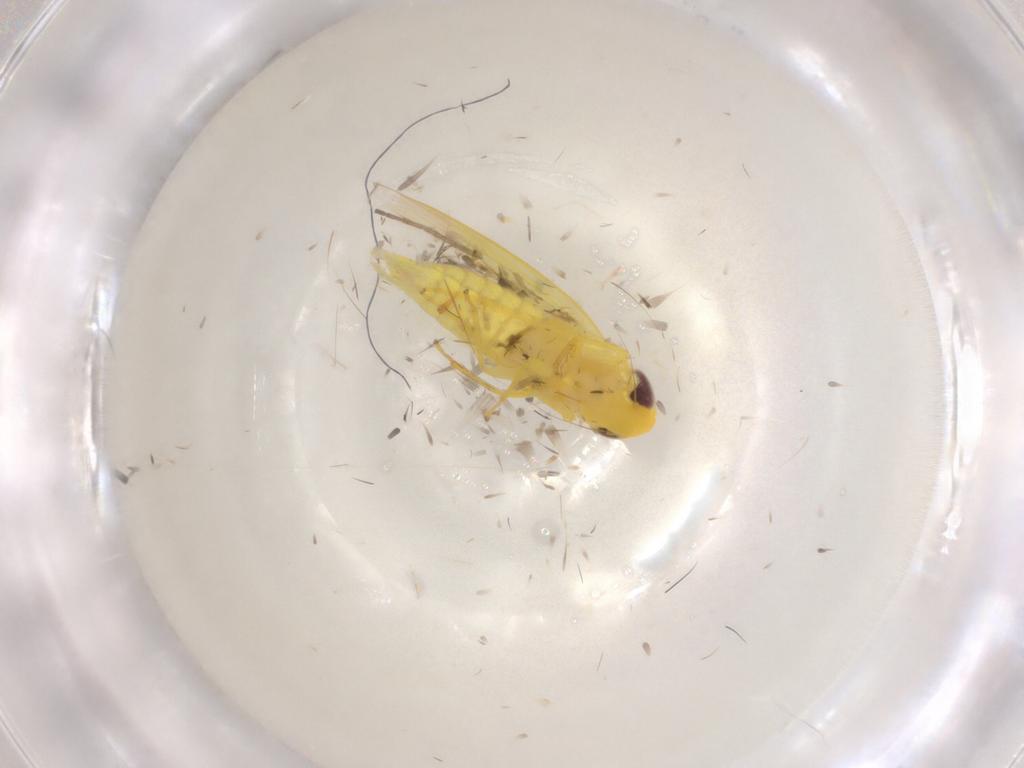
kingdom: Animalia
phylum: Arthropoda
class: Insecta
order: Hemiptera
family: Cicadellidae
